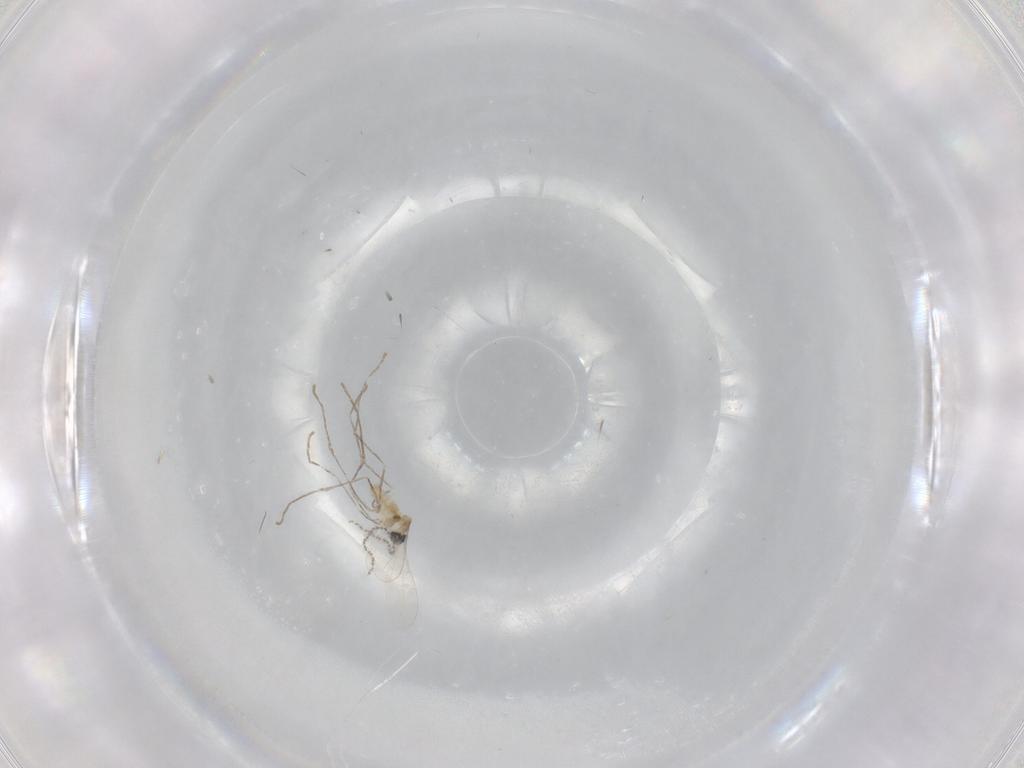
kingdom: Animalia
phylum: Arthropoda
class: Insecta
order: Diptera
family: Cecidomyiidae
